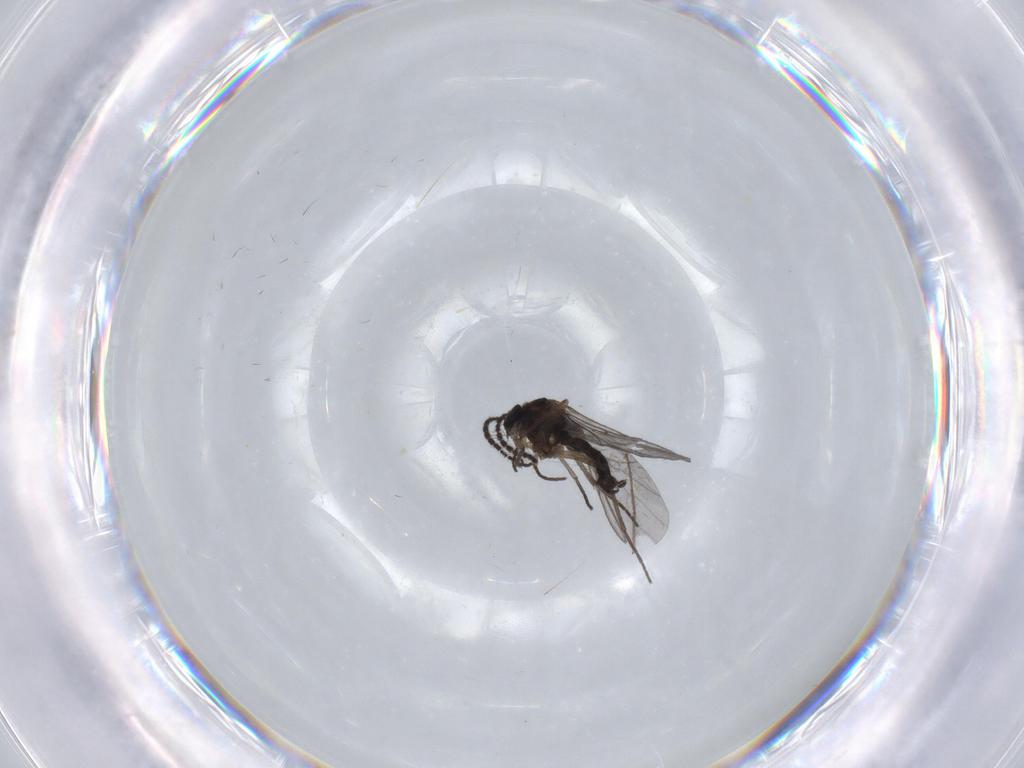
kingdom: Animalia
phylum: Arthropoda
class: Insecta
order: Diptera
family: Sciaridae
